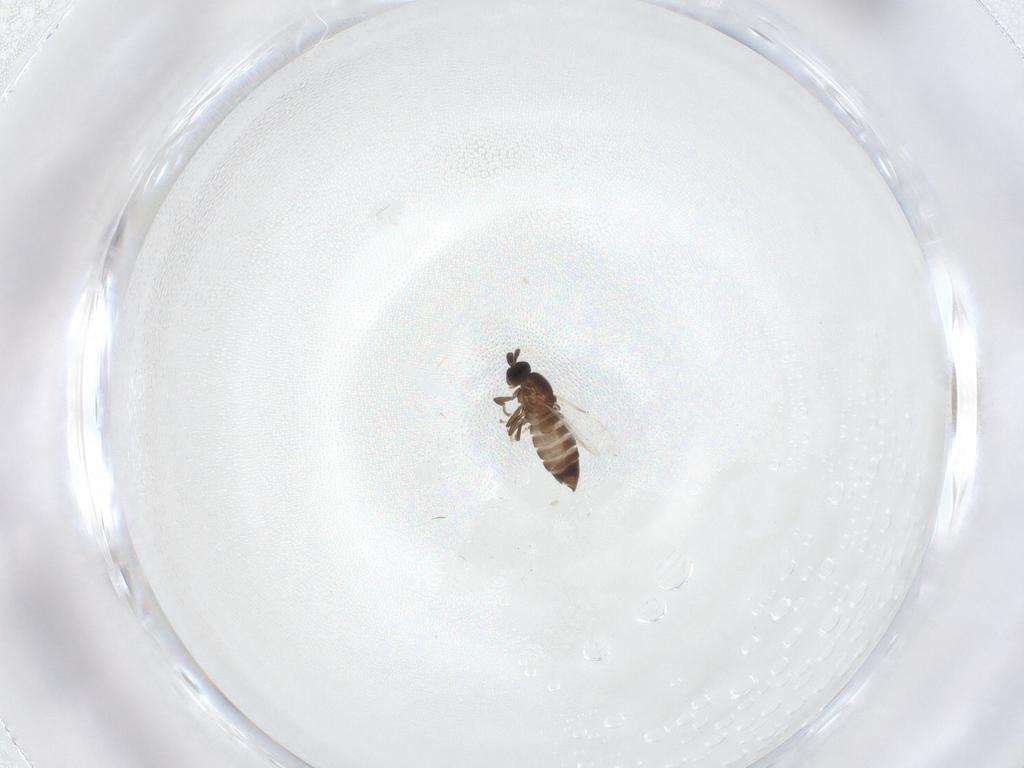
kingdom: Animalia
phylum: Arthropoda
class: Insecta
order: Diptera
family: Scatopsidae
